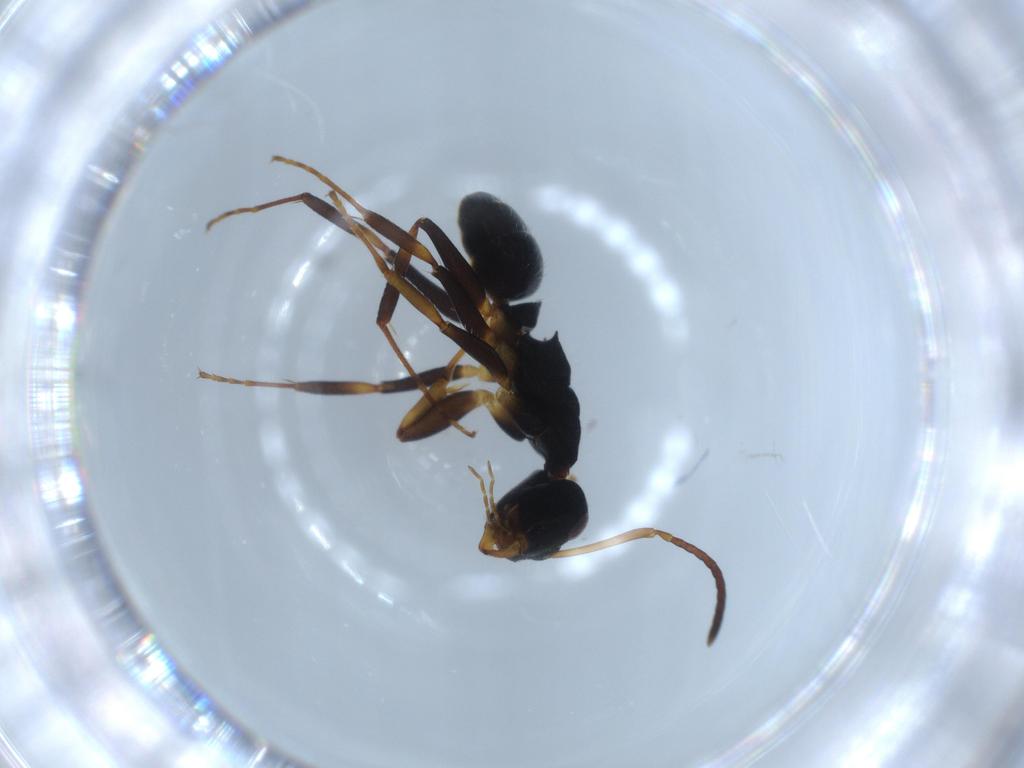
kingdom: Animalia
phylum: Arthropoda
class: Insecta
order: Hymenoptera
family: Formicidae
